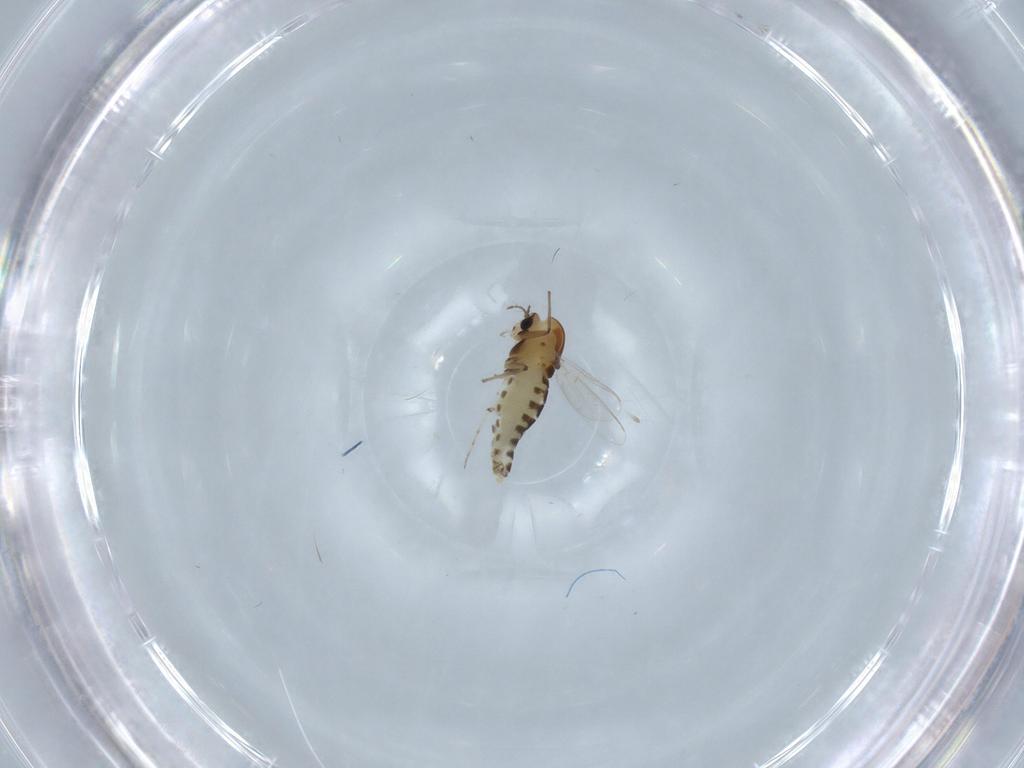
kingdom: Animalia
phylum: Arthropoda
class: Insecta
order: Diptera
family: Chironomidae
